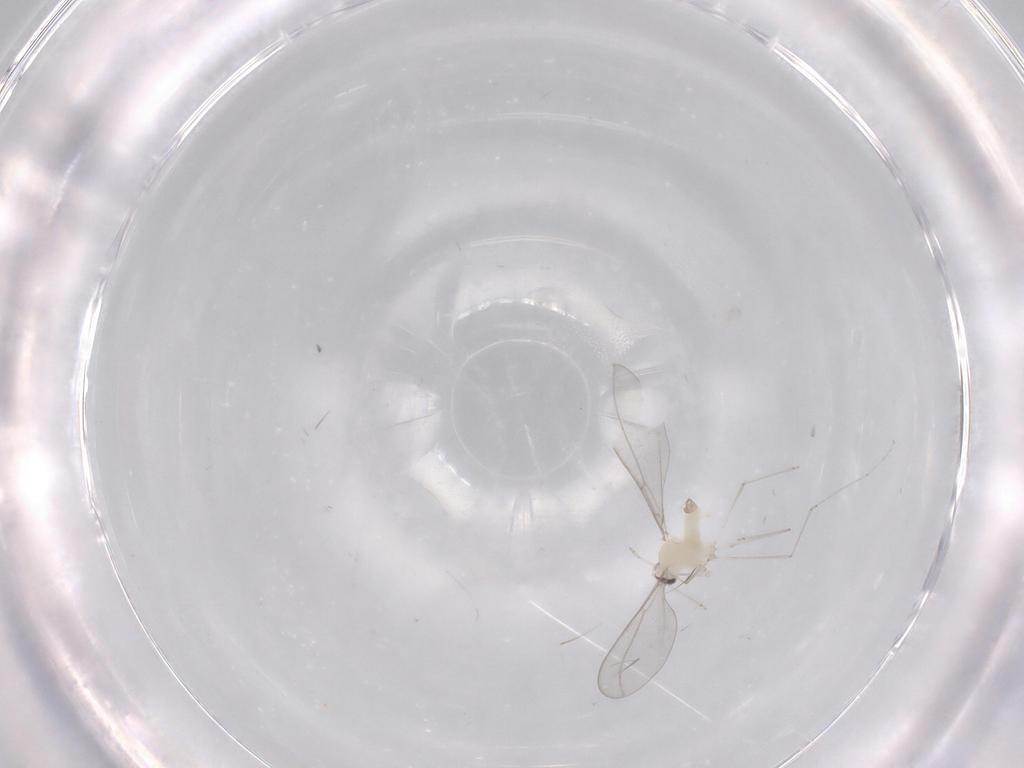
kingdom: Animalia
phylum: Arthropoda
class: Insecta
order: Diptera
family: Cecidomyiidae
